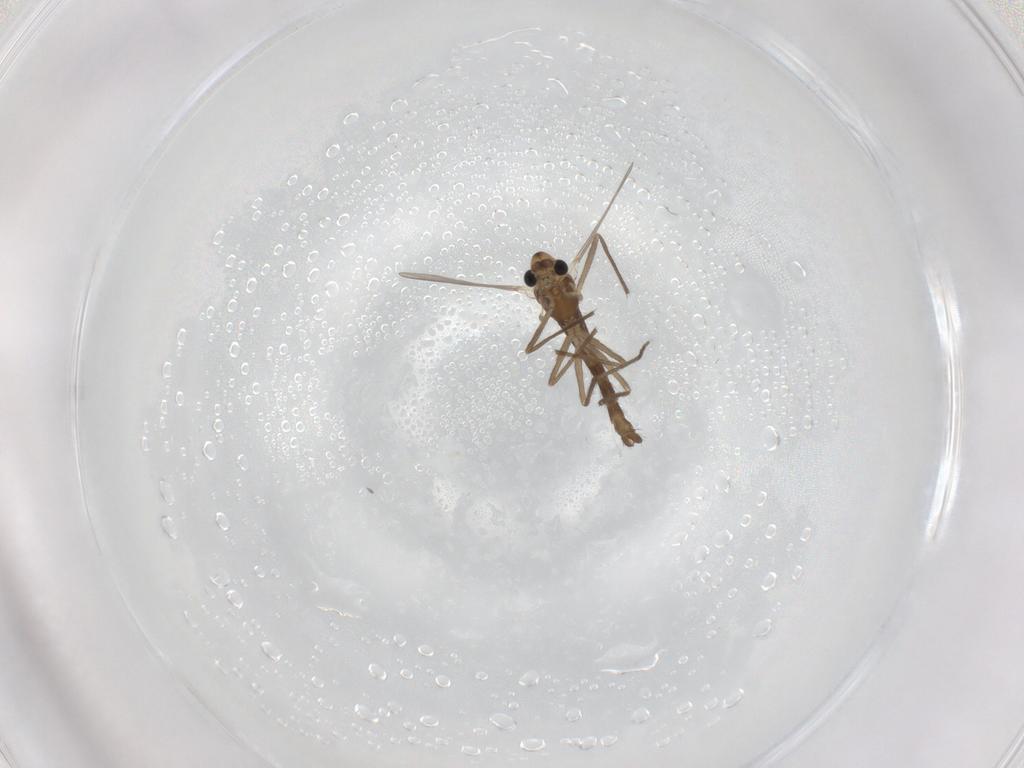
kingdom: Animalia
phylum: Arthropoda
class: Insecta
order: Diptera
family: Chironomidae
